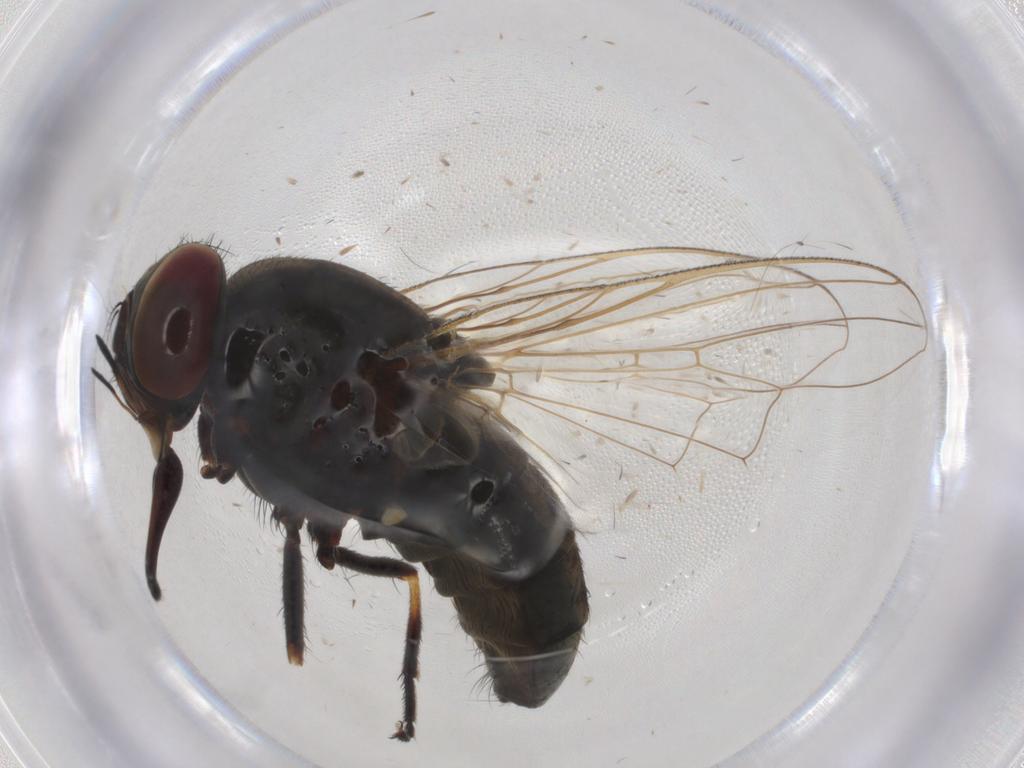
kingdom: Animalia
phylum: Arthropoda
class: Insecta
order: Diptera
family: Muscidae
